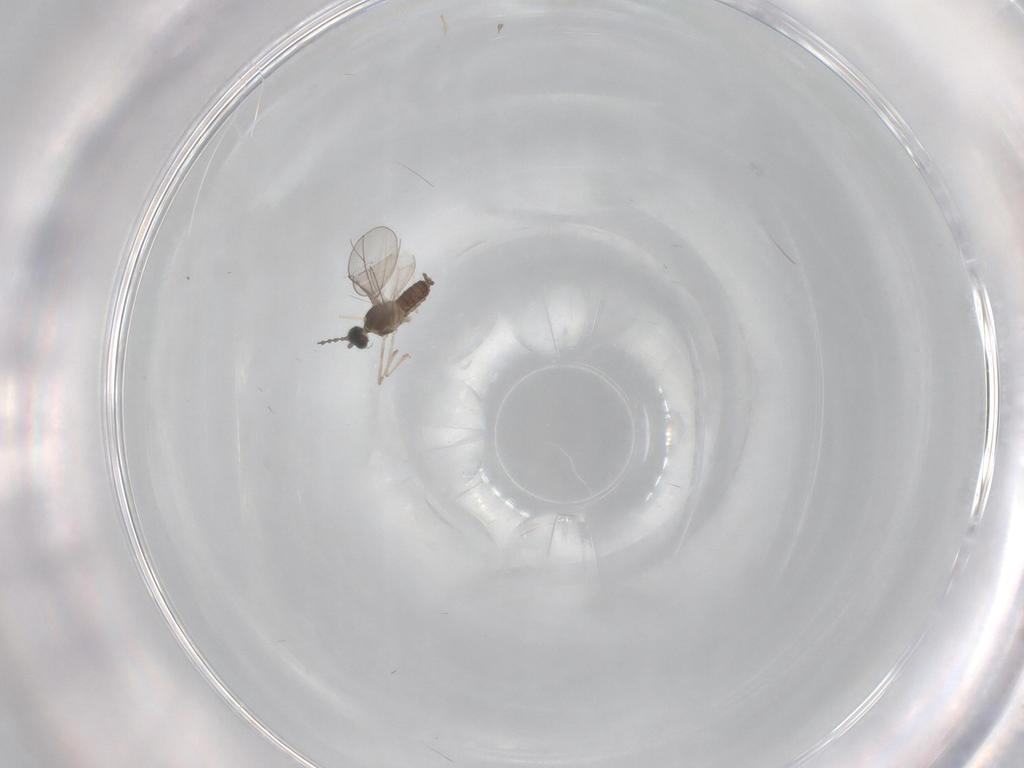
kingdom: Animalia
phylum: Arthropoda
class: Insecta
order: Diptera
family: Cecidomyiidae
